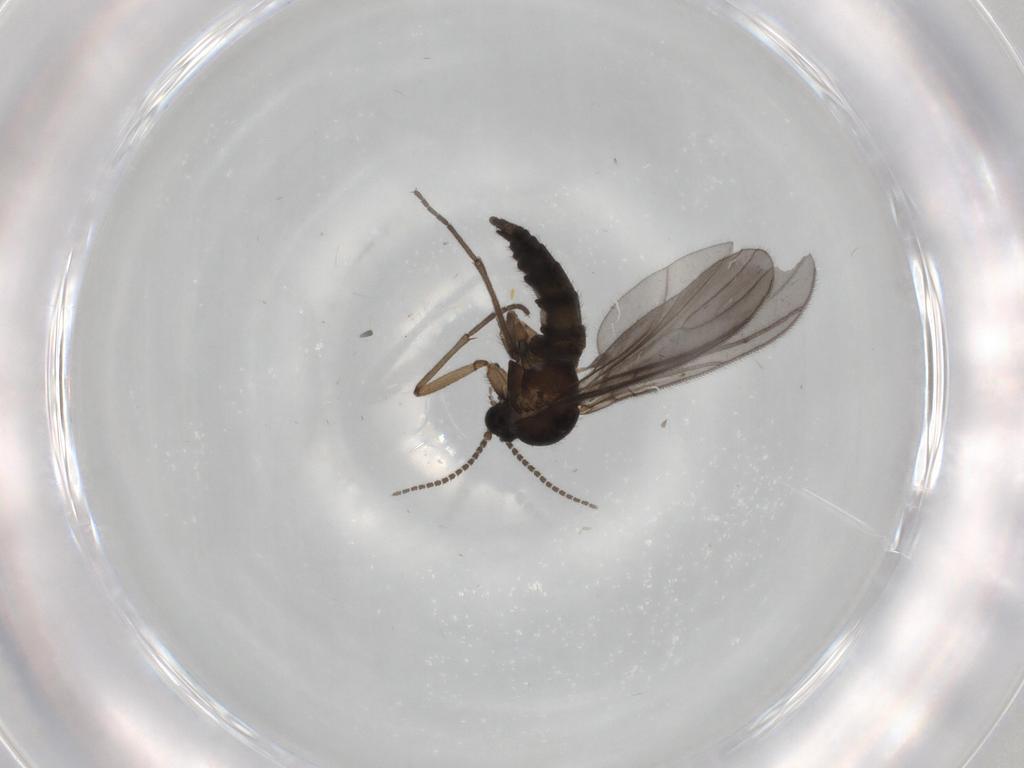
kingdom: Animalia
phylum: Arthropoda
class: Insecta
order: Diptera
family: Sciaridae
